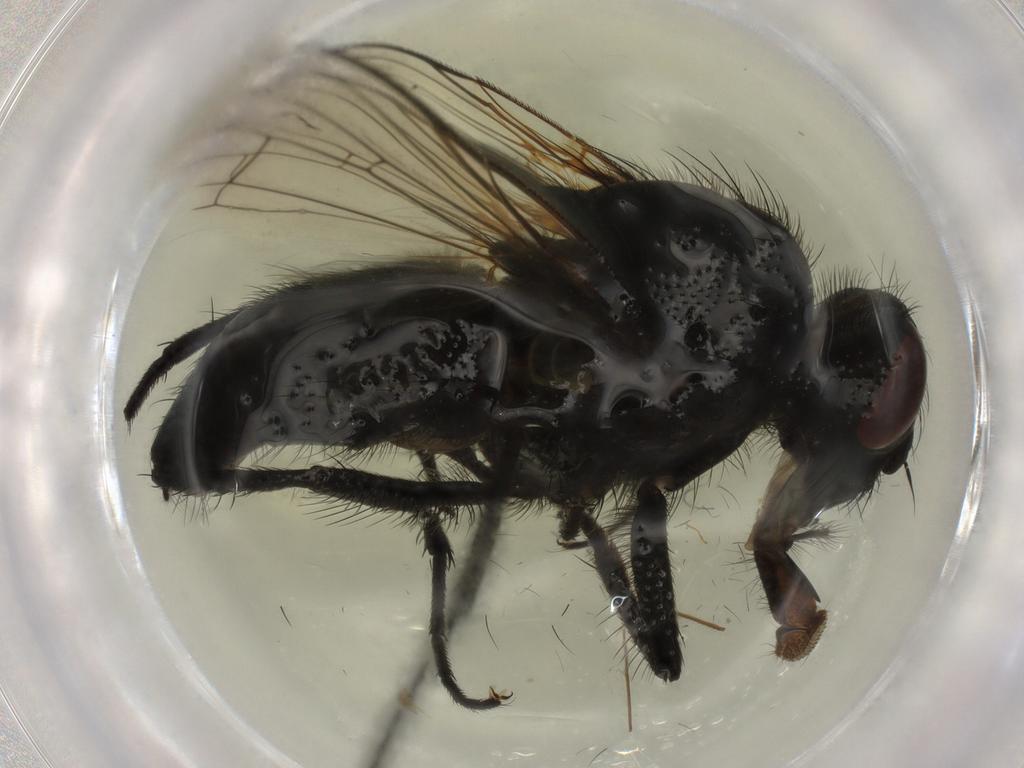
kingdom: Animalia
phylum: Arthropoda
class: Insecta
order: Diptera
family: Muscidae
